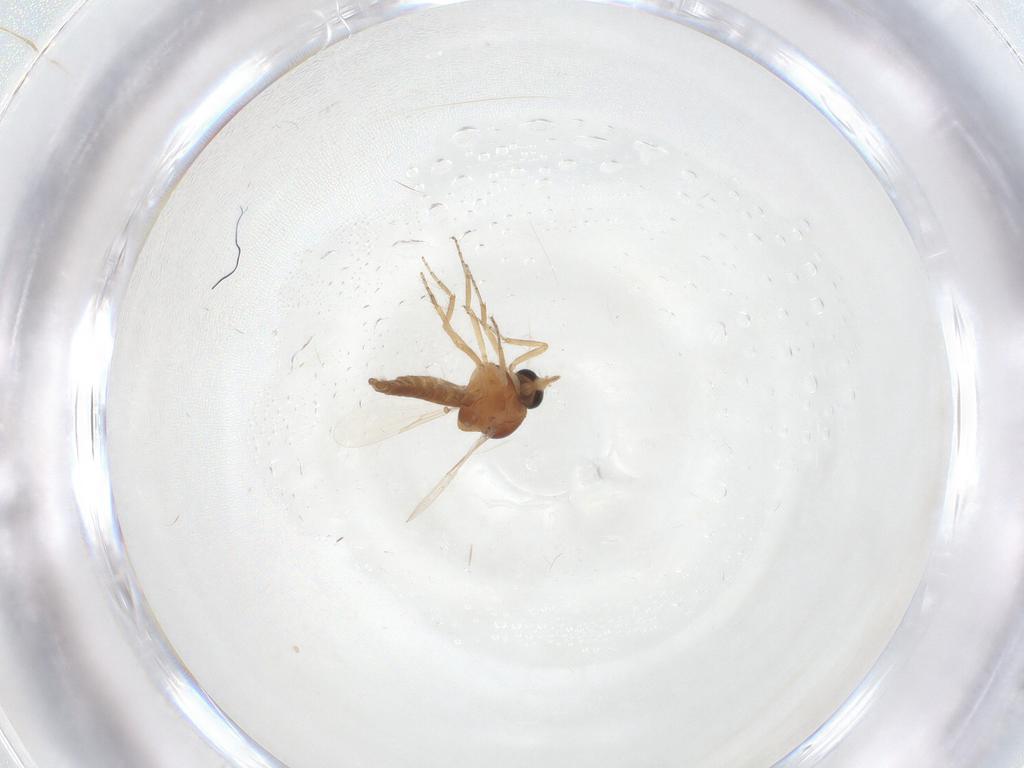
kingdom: Animalia
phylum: Arthropoda
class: Insecta
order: Diptera
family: Ceratopogonidae
